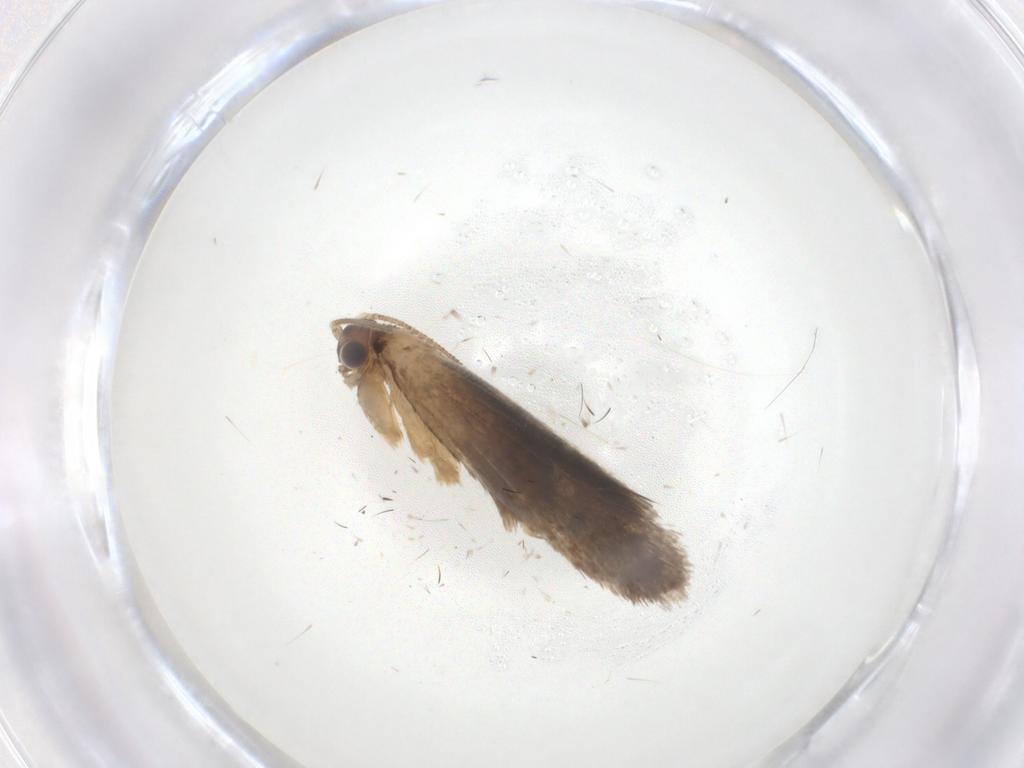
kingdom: Animalia
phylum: Arthropoda
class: Insecta
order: Lepidoptera
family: Dryadaulidae
